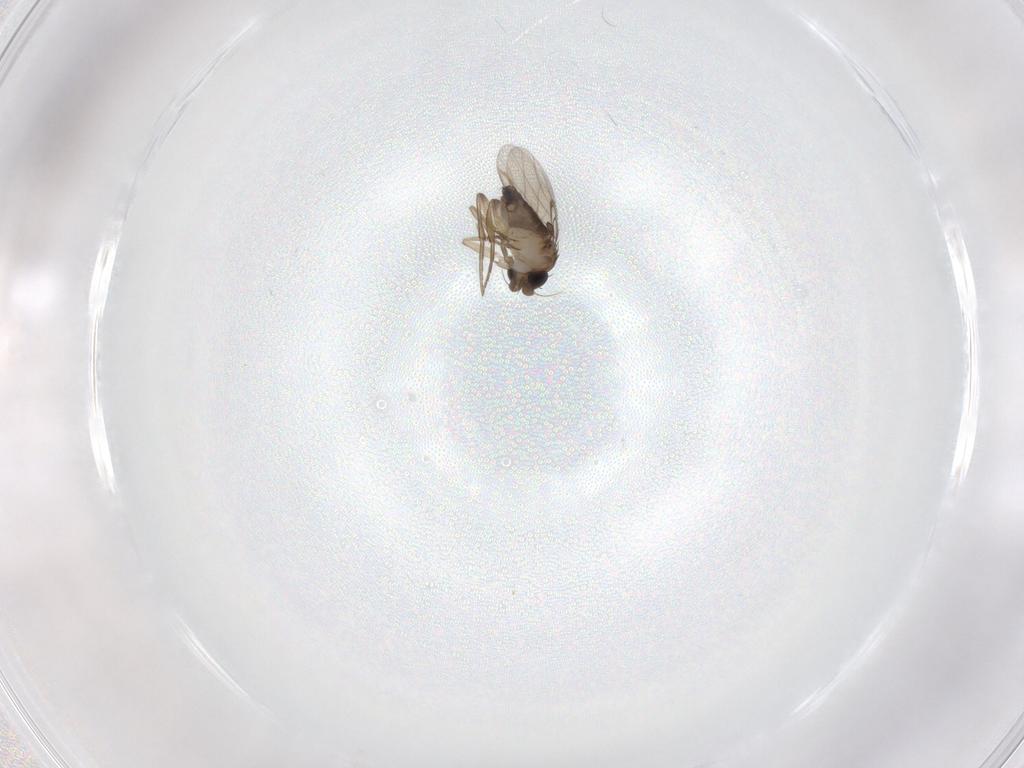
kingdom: Animalia
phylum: Arthropoda
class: Insecta
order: Diptera
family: Phoridae
